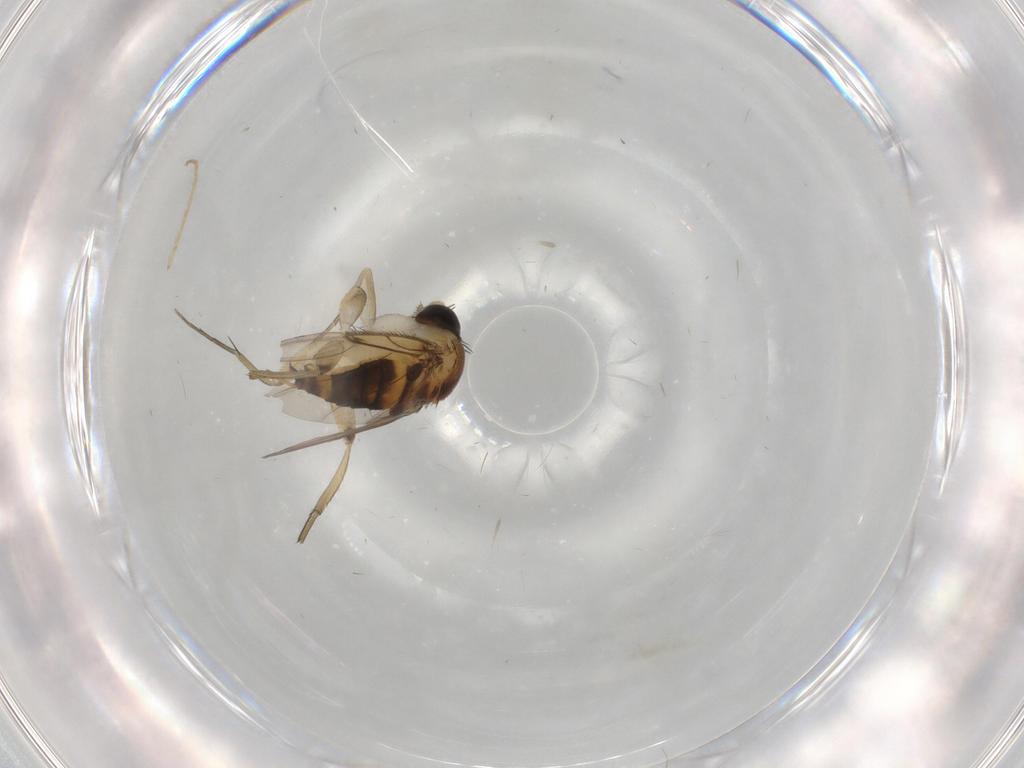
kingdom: Animalia
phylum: Arthropoda
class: Insecta
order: Diptera
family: Phoridae
